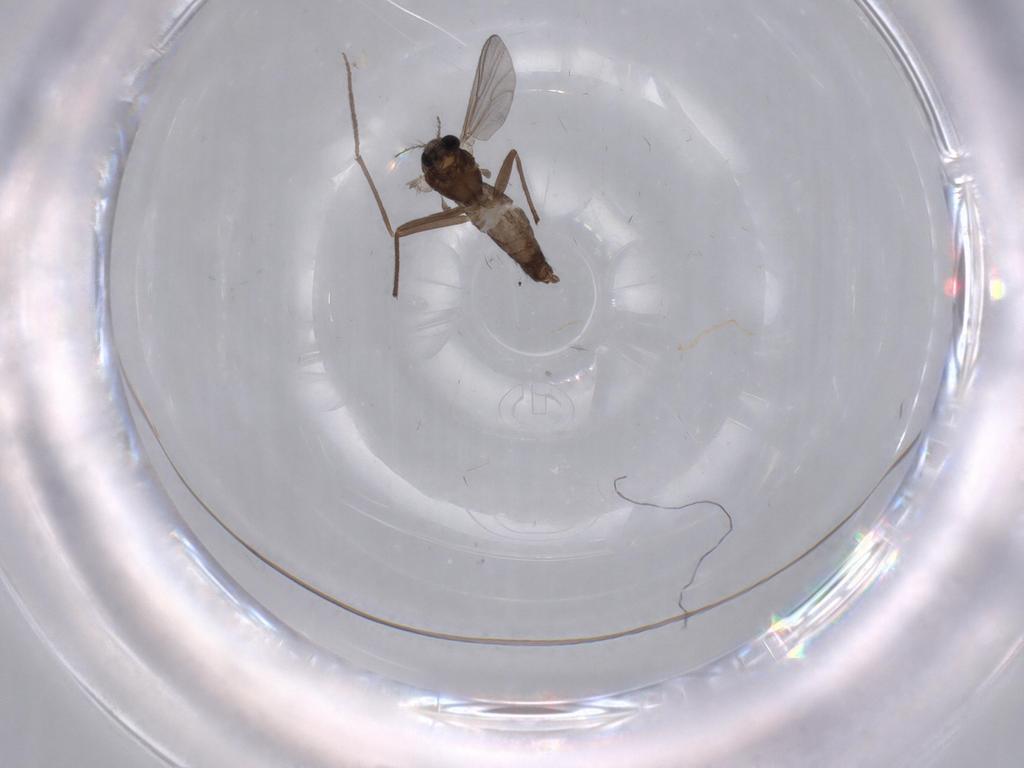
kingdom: Animalia
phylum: Arthropoda
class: Insecta
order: Diptera
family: Chironomidae
